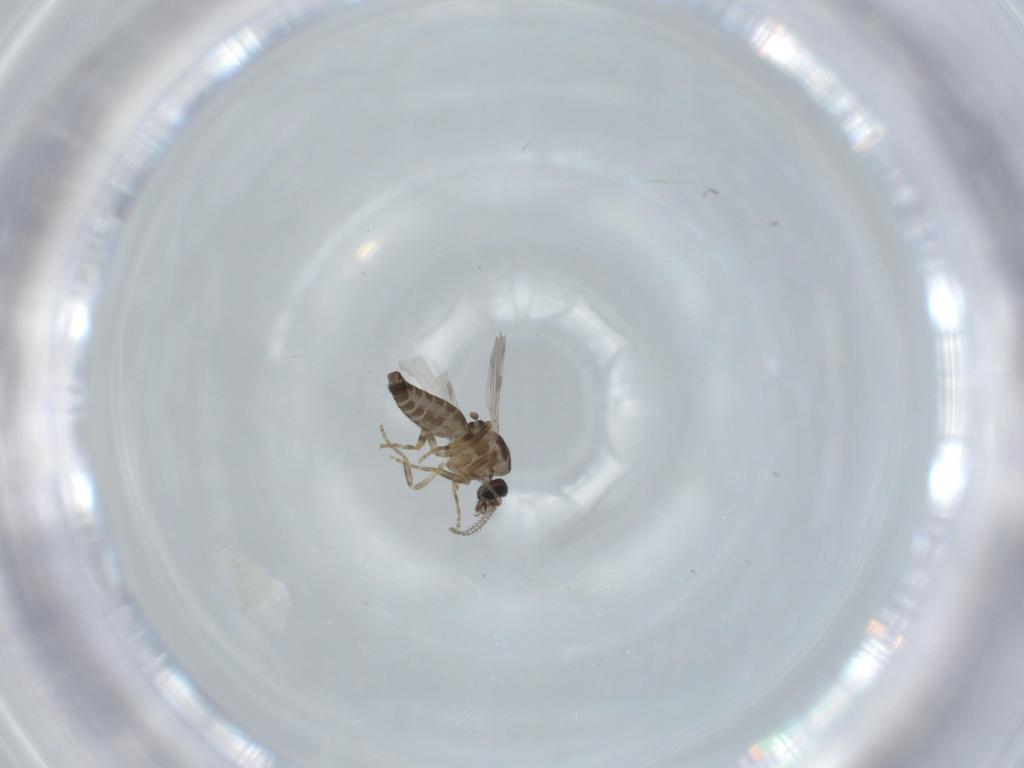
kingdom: Animalia
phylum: Arthropoda
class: Insecta
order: Diptera
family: Ceratopogonidae
